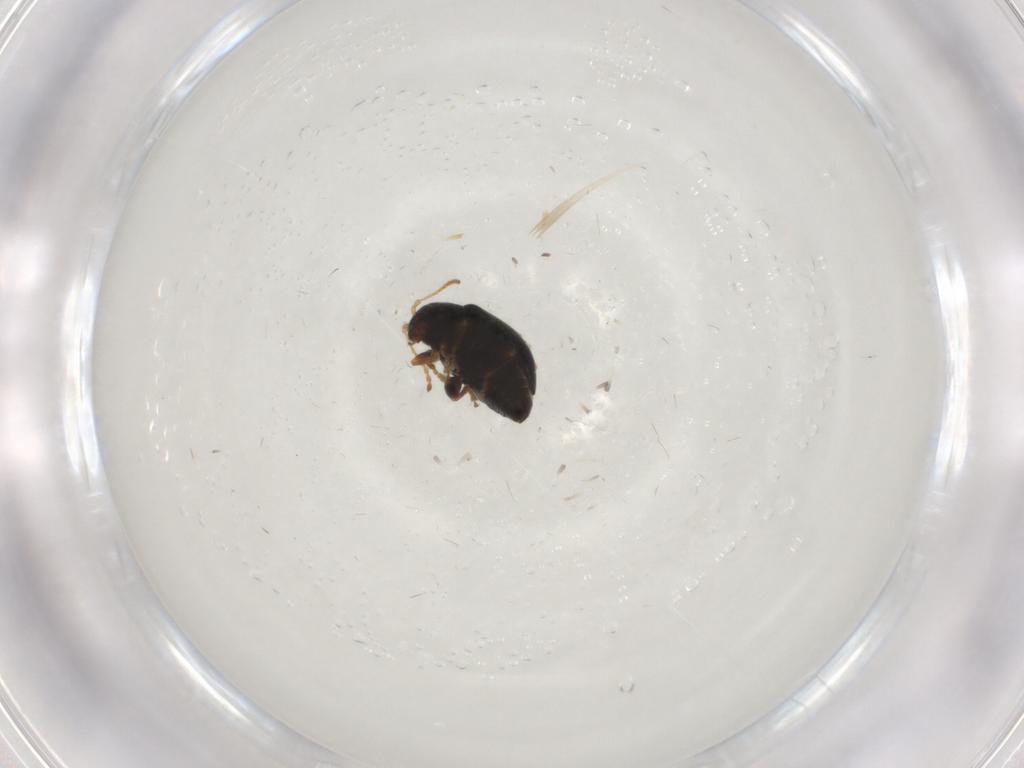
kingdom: Animalia
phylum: Arthropoda
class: Insecta
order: Coleoptera
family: Chrysomelidae
